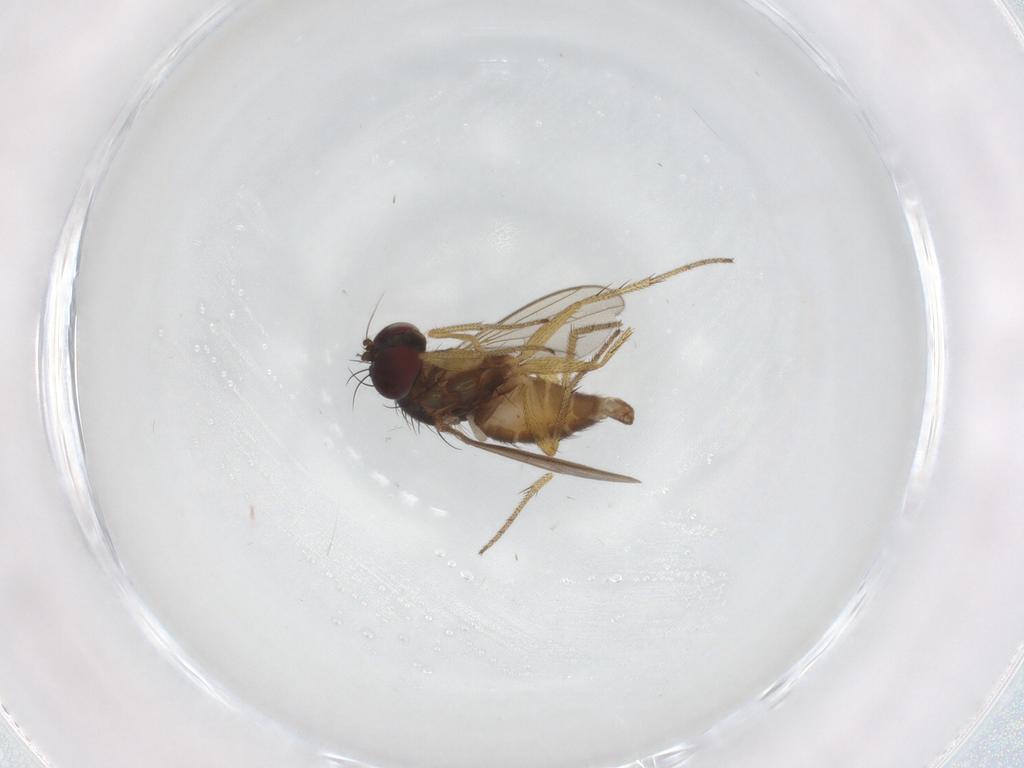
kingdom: Animalia
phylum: Arthropoda
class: Insecta
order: Diptera
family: Dolichopodidae
